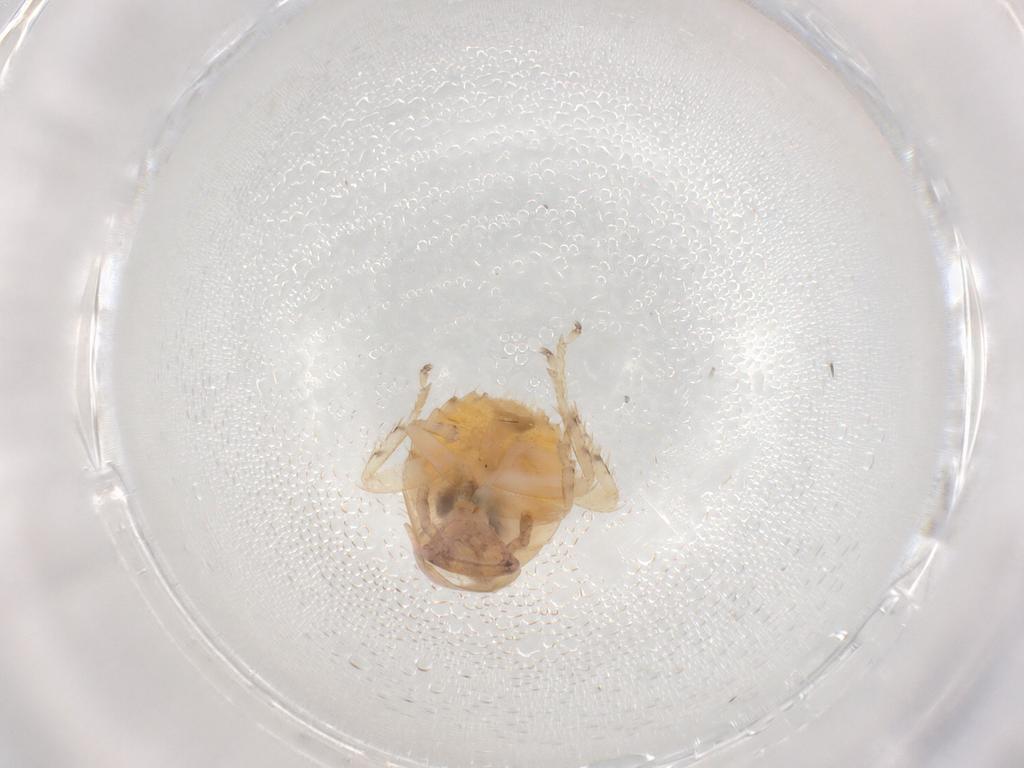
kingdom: Animalia
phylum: Arthropoda
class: Insecta
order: Blattodea
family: Ectobiidae
